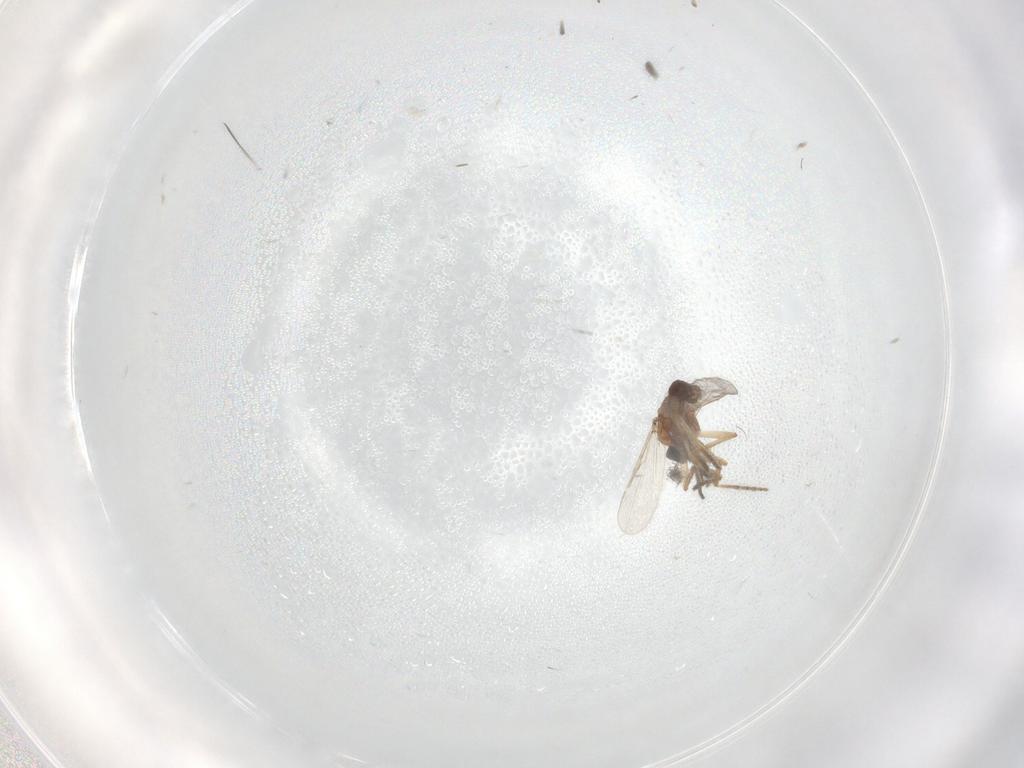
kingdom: Animalia
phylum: Arthropoda
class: Insecta
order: Diptera
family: Ceratopogonidae
